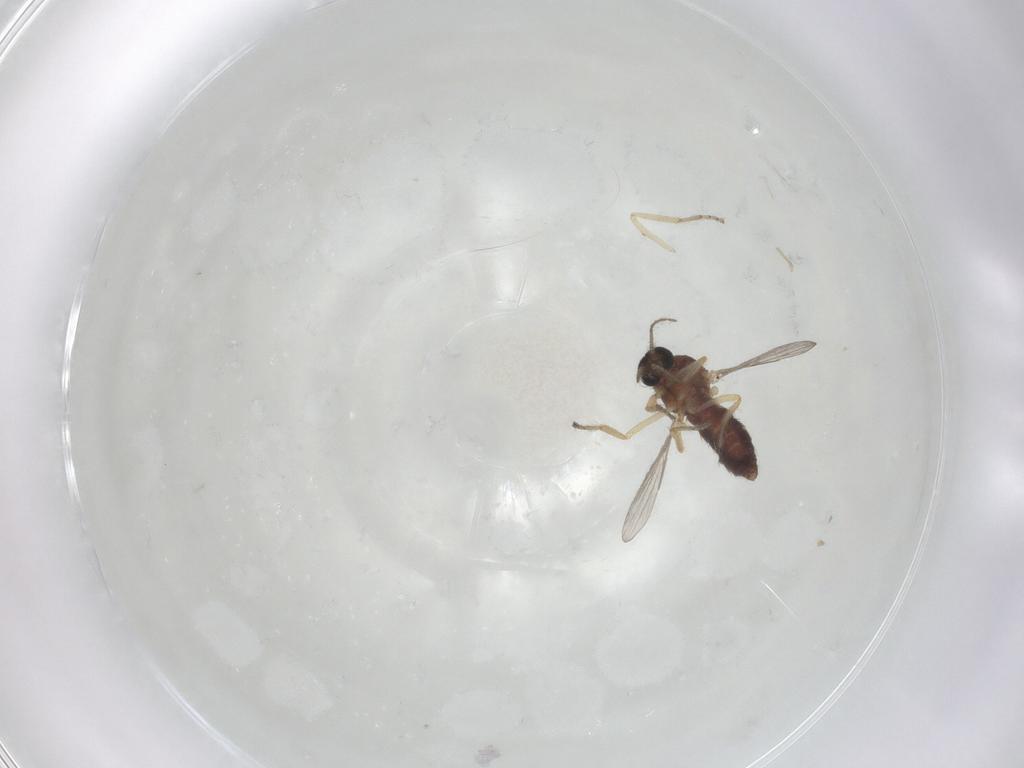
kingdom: Animalia
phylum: Arthropoda
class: Insecta
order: Diptera
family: Ceratopogonidae
